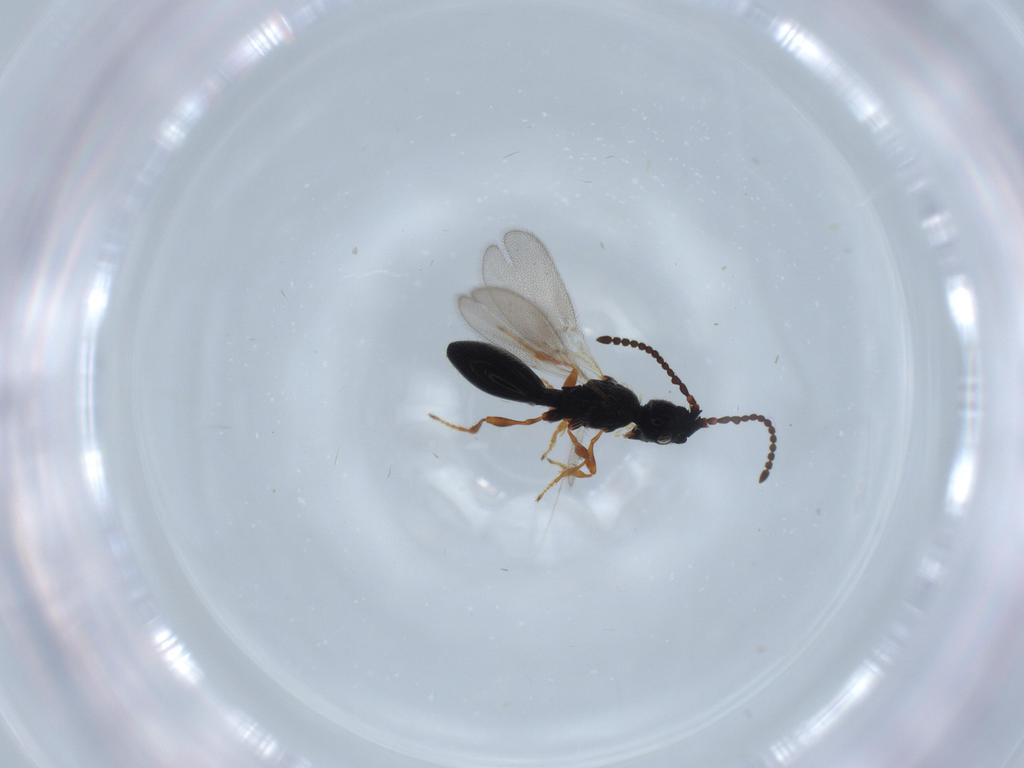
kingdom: Animalia
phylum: Arthropoda
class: Insecta
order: Hymenoptera
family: Diapriidae
